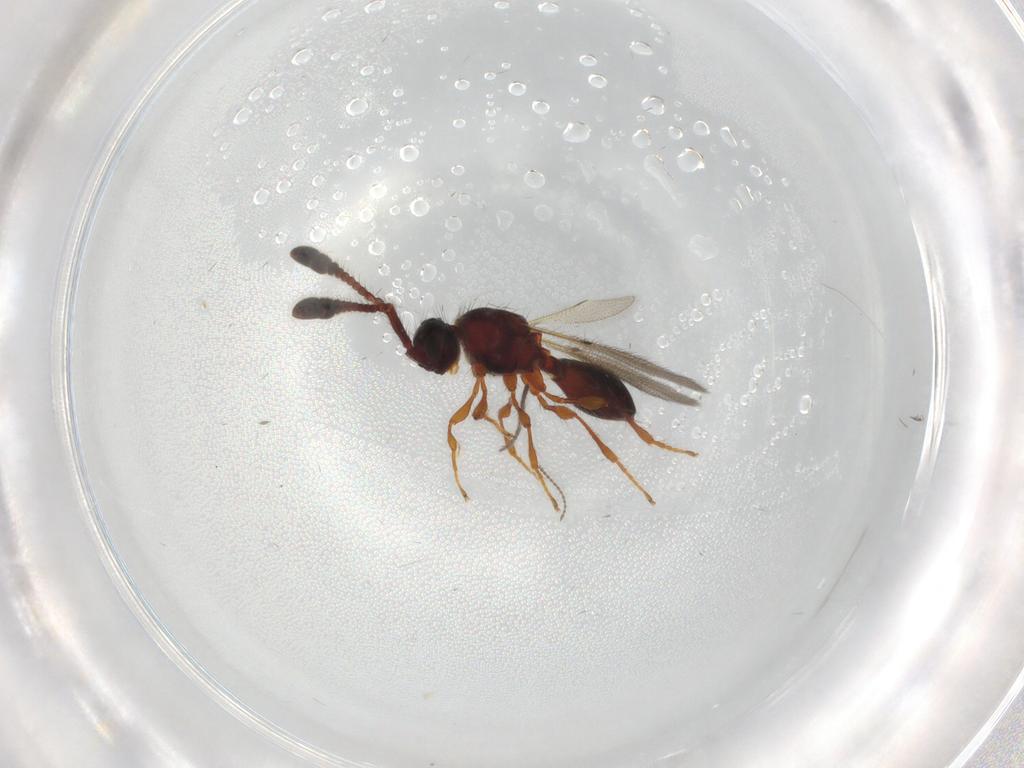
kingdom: Animalia
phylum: Arthropoda
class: Insecta
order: Hymenoptera
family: Diapriidae
